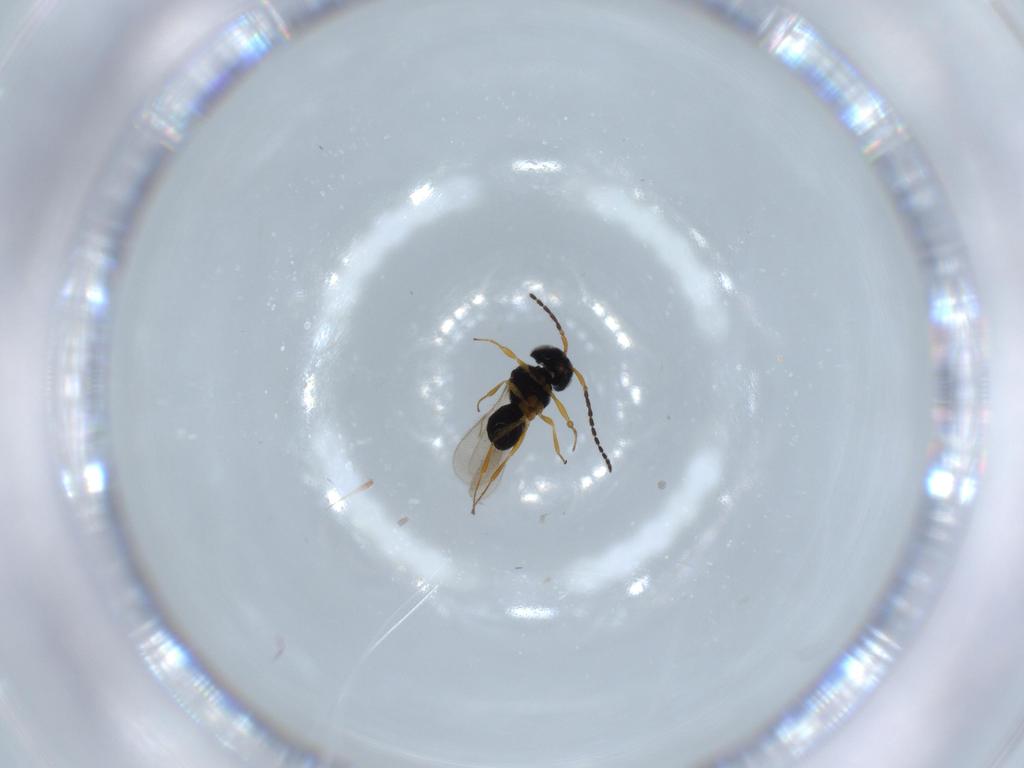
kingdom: Animalia
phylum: Arthropoda
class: Insecta
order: Hymenoptera
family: Scelionidae
